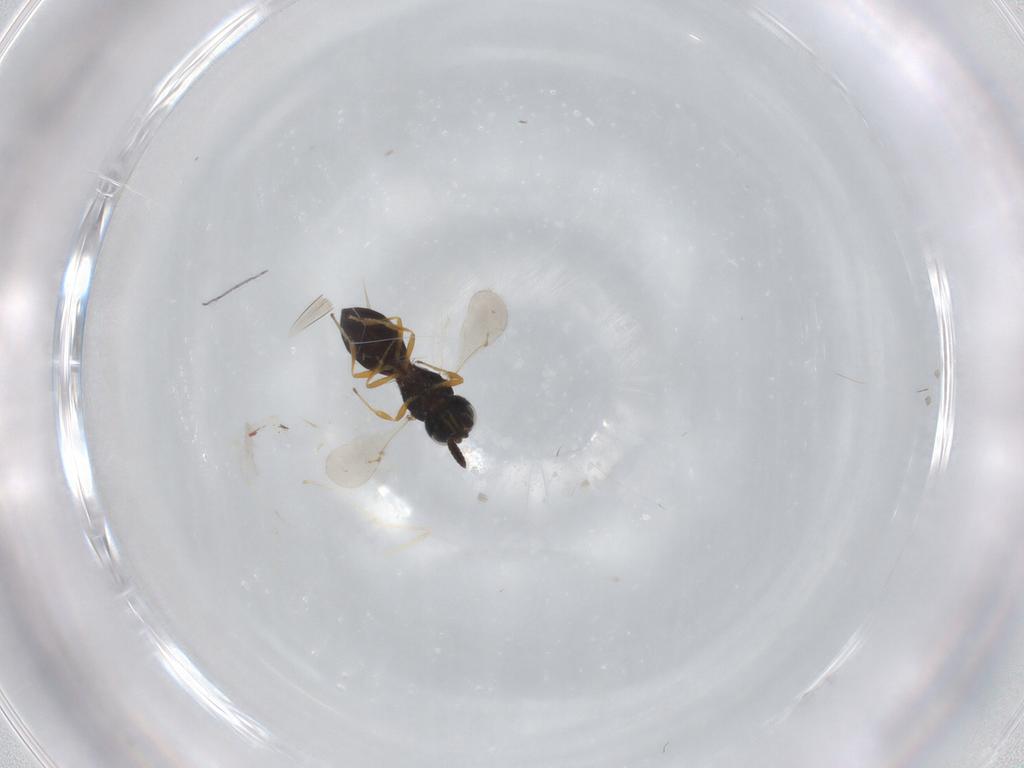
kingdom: Animalia
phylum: Arthropoda
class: Insecta
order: Hymenoptera
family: Scelionidae
